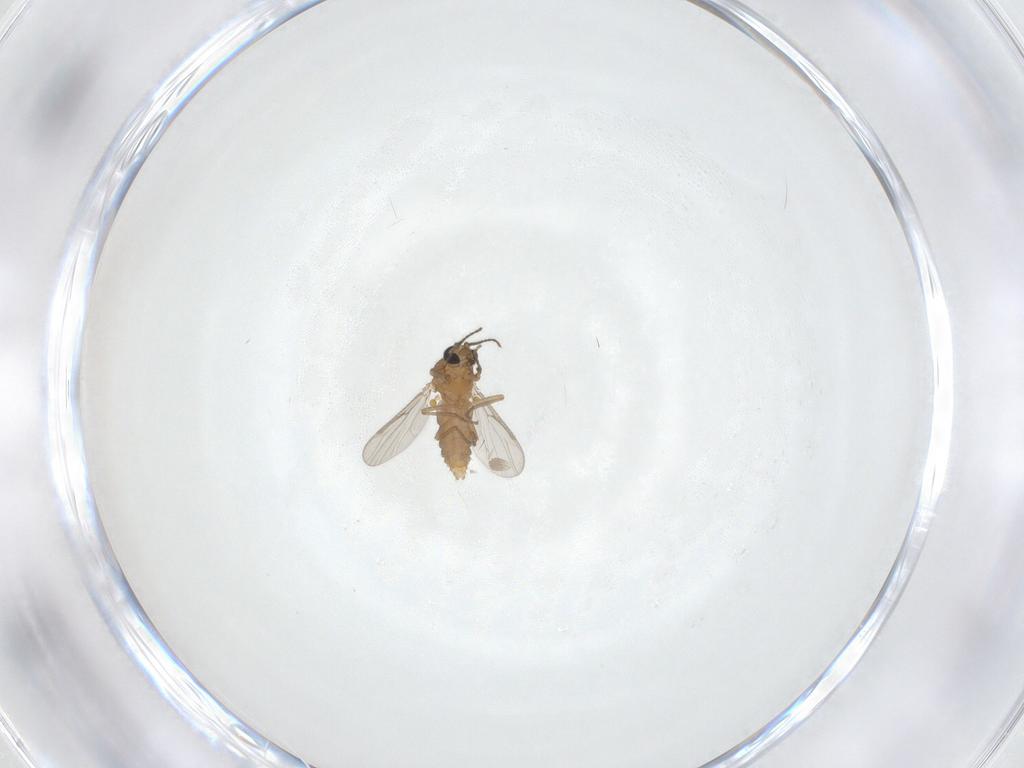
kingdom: Animalia
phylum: Arthropoda
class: Insecta
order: Diptera
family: Ceratopogonidae
